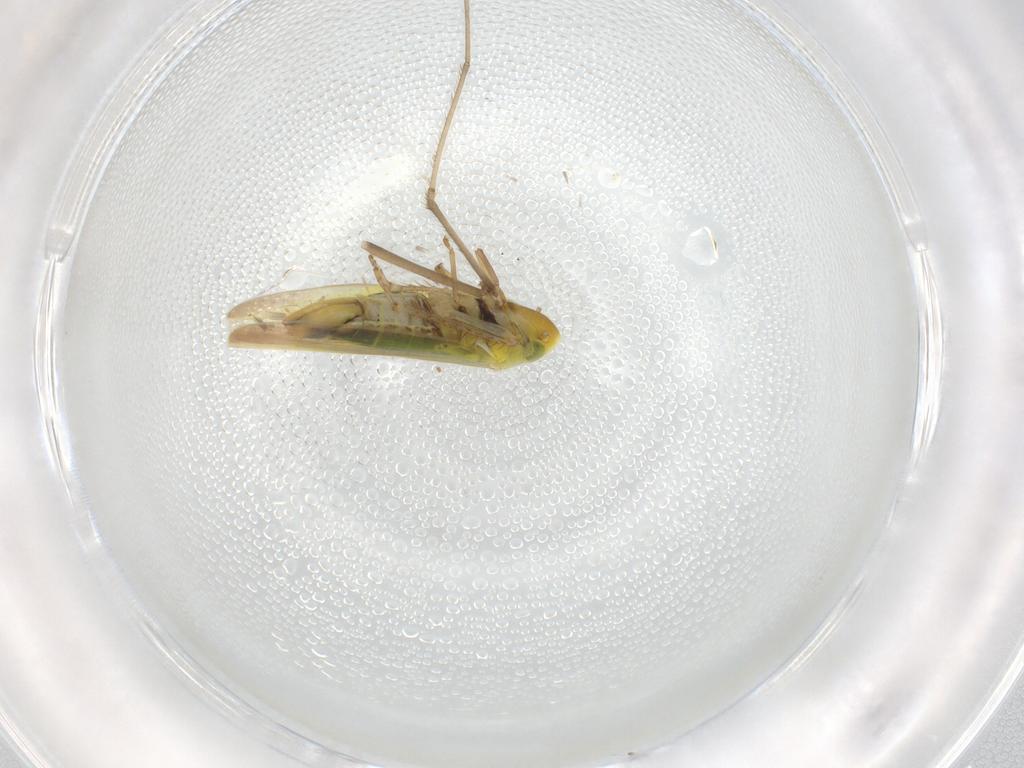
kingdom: Animalia
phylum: Arthropoda
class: Insecta
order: Hemiptera
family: Cicadellidae
